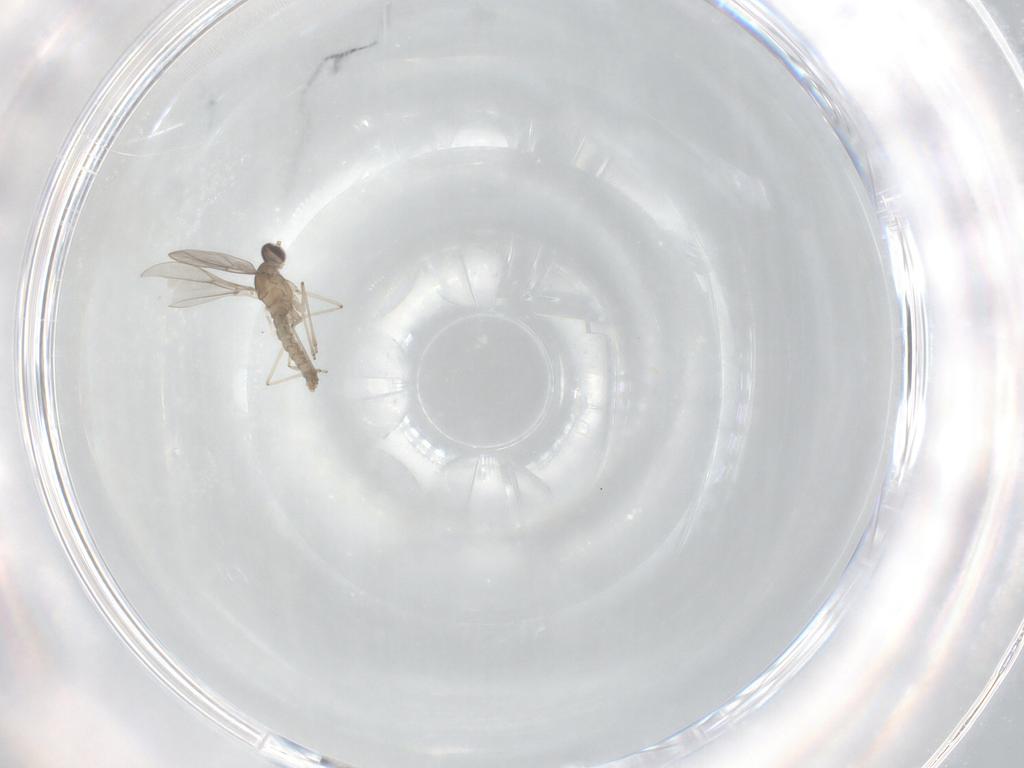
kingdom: Animalia
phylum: Arthropoda
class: Insecta
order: Diptera
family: Cecidomyiidae
